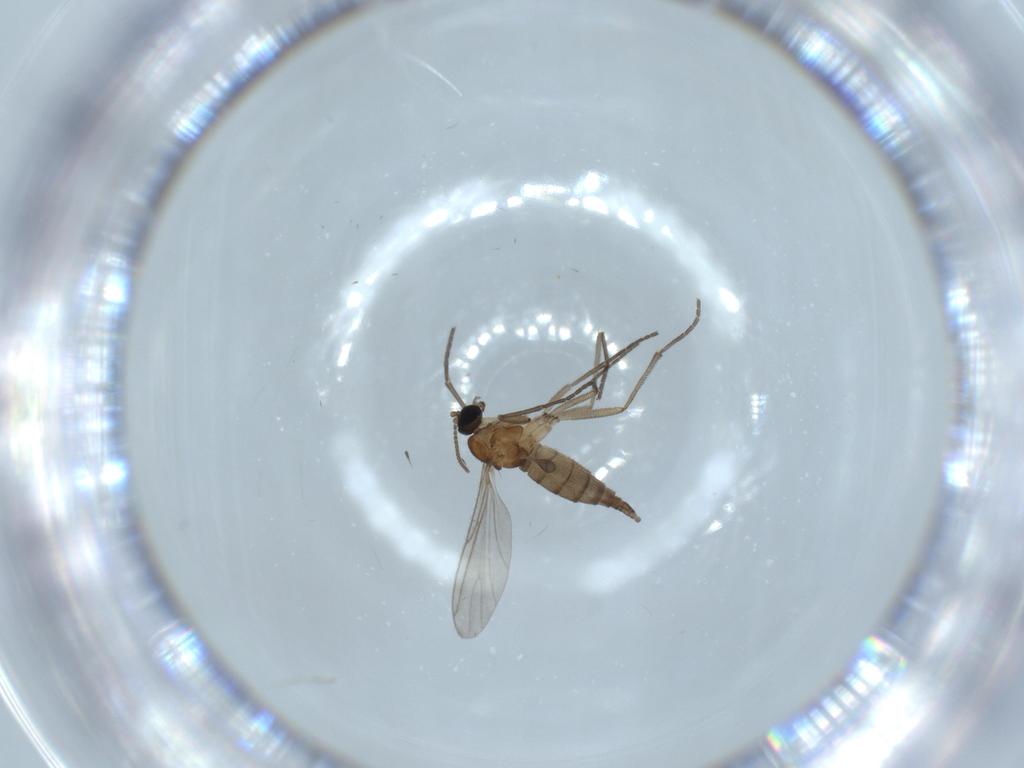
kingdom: Animalia
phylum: Arthropoda
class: Insecta
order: Diptera
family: Sciaridae
